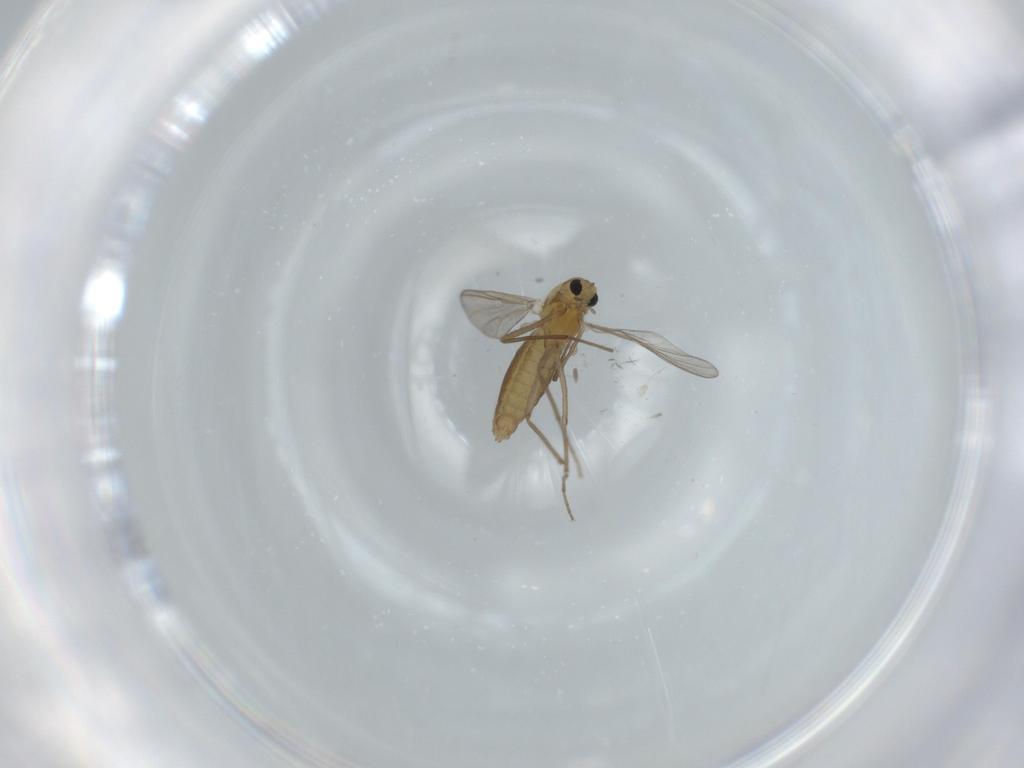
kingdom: Animalia
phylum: Arthropoda
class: Insecta
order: Diptera
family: Chironomidae
